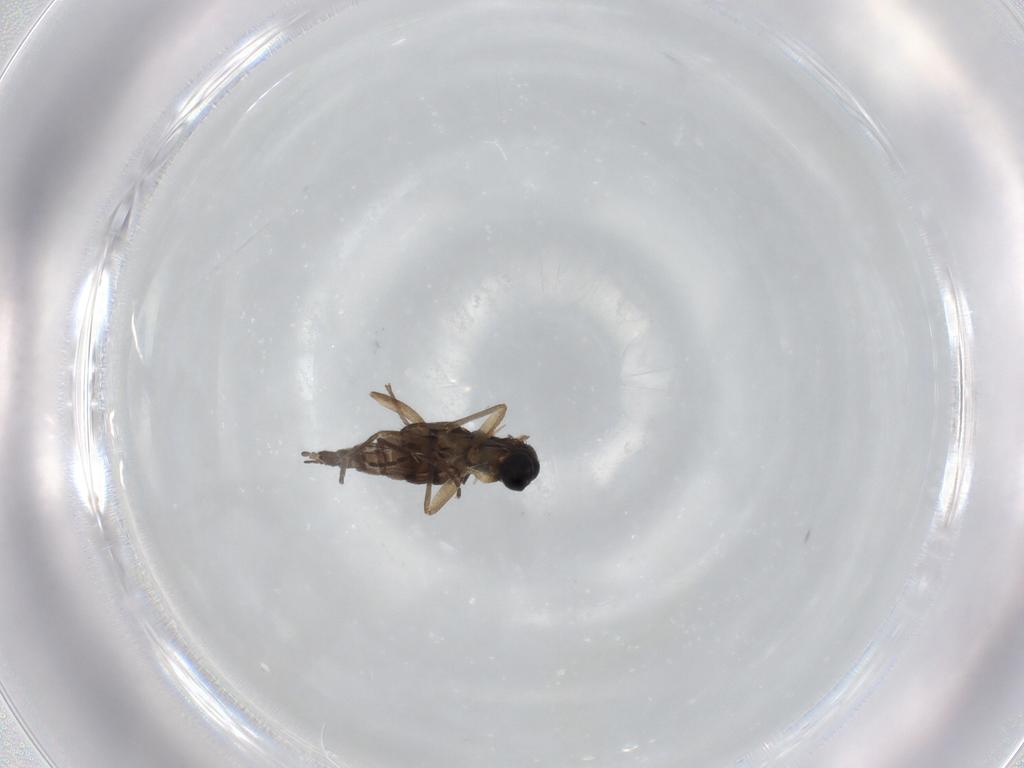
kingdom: Animalia
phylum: Arthropoda
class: Insecta
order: Diptera
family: Sciaridae
